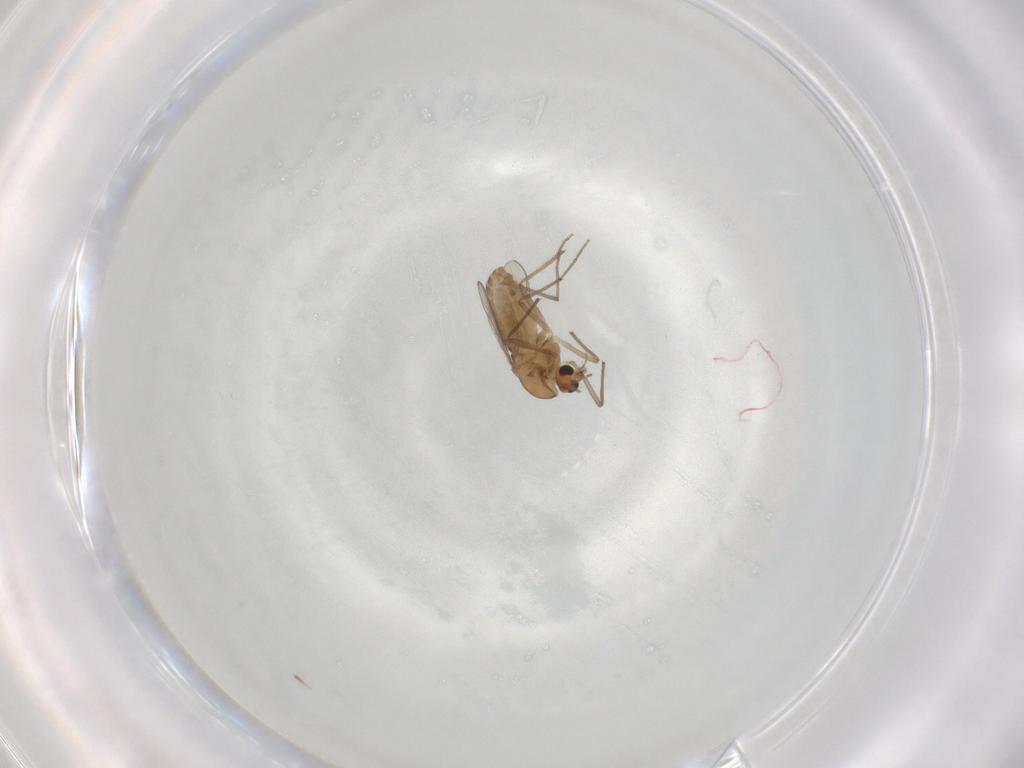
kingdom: Animalia
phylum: Arthropoda
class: Insecta
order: Diptera
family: Chironomidae
